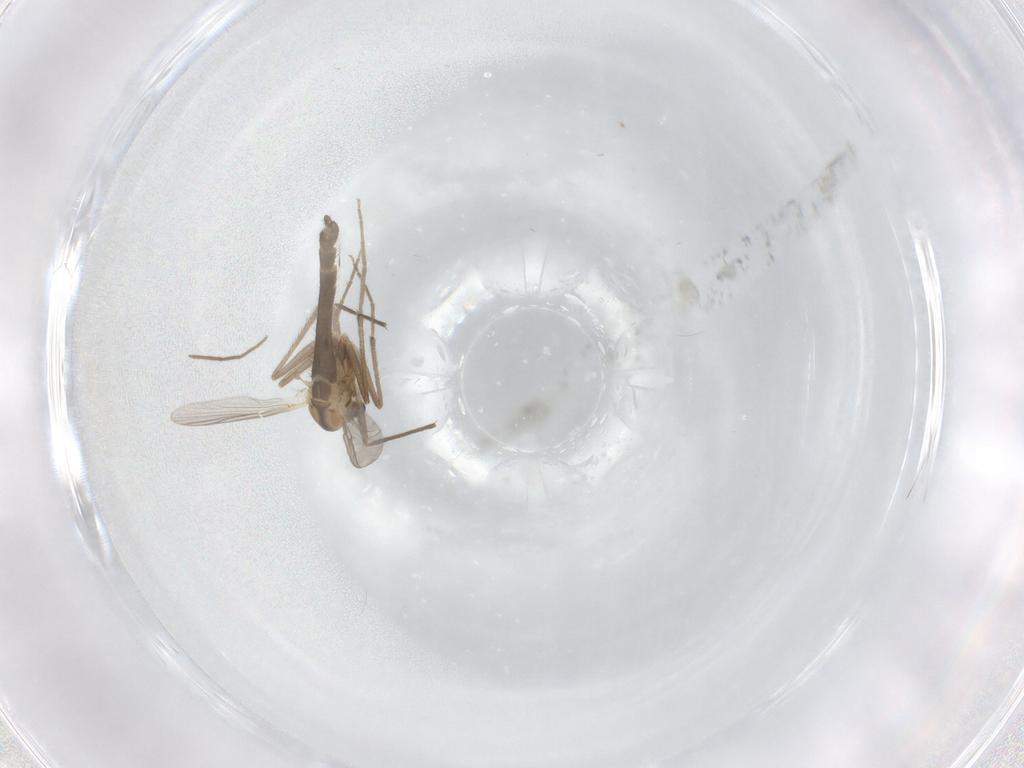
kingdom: Animalia
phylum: Arthropoda
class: Insecta
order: Diptera
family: Chironomidae
